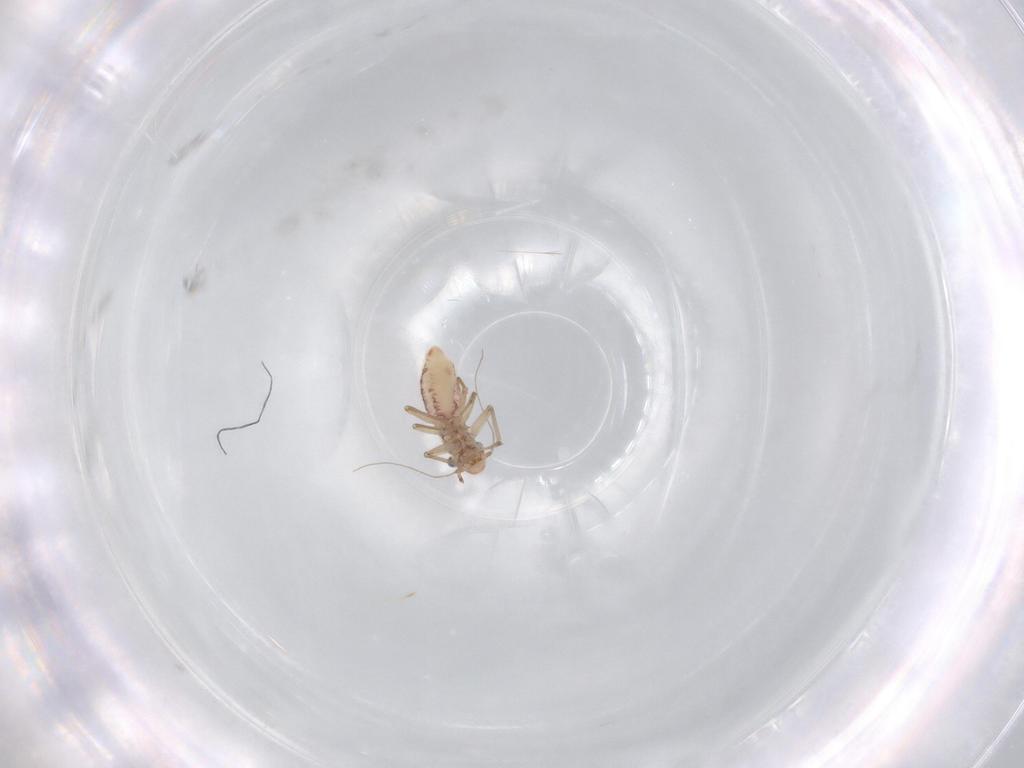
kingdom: Animalia
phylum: Arthropoda
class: Insecta
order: Psocodea
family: Lepidopsocidae
